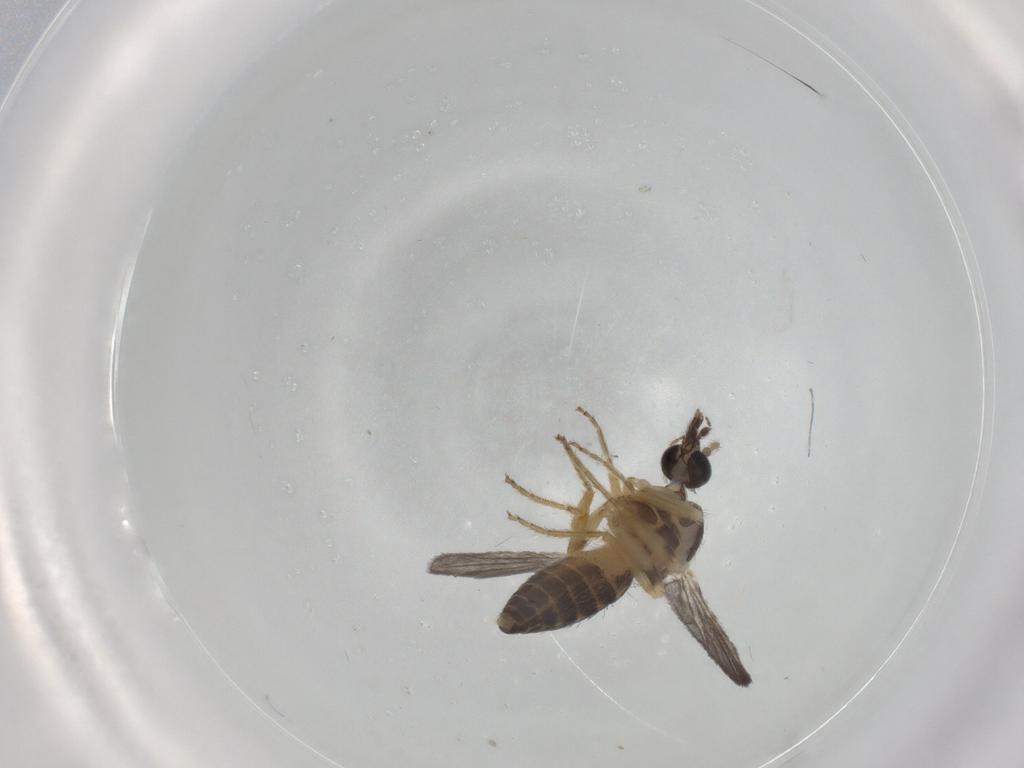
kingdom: Animalia
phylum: Arthropoda
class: Insecta
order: Diptera
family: Ceratopogonidae
